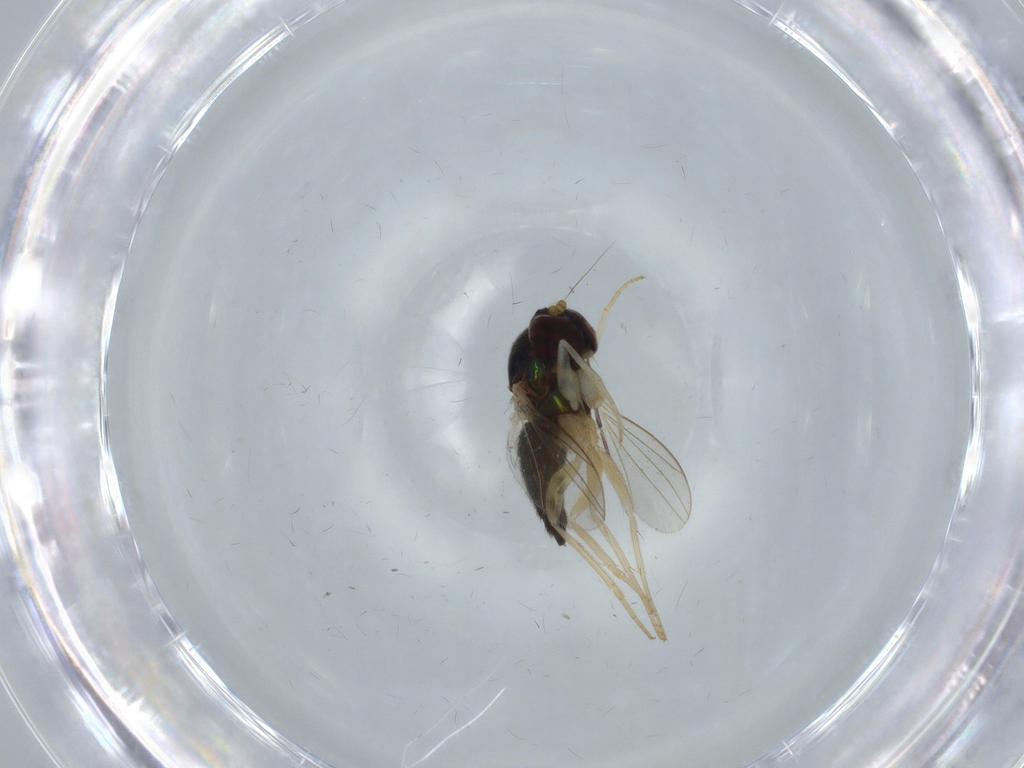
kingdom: Animalia
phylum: Arthropoda
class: Insecta
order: Diptera
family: Dolichopodidae
